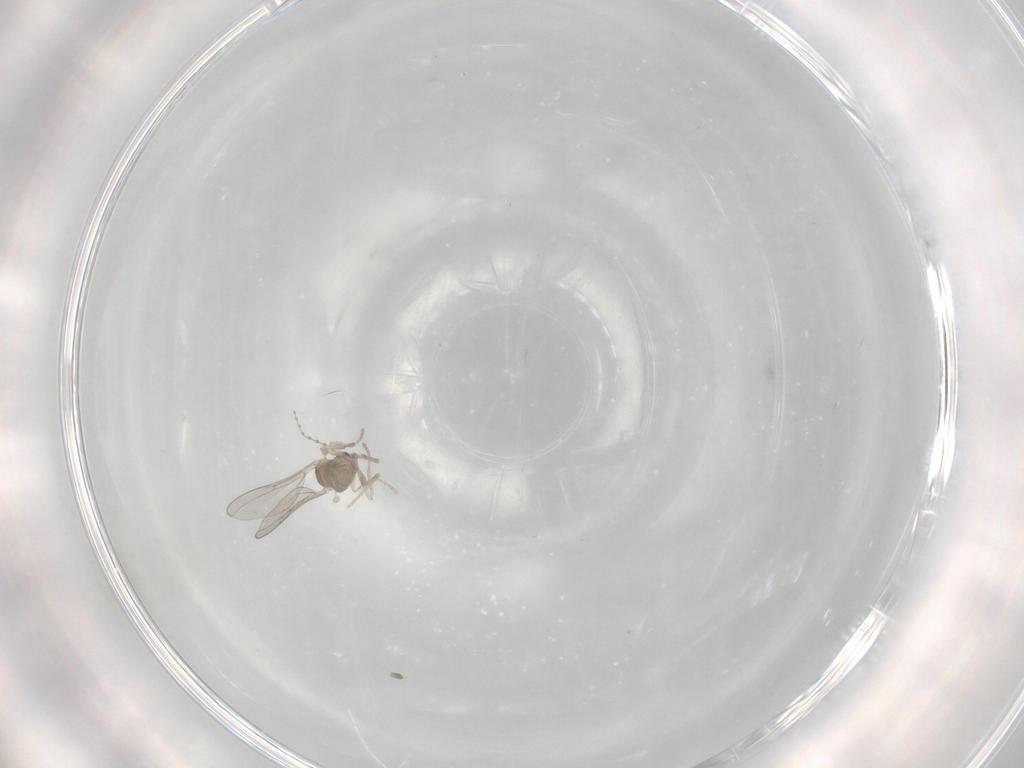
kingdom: Animalia
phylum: Arthropoda
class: Insecta
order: Diptera
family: Cecidomyiidae
